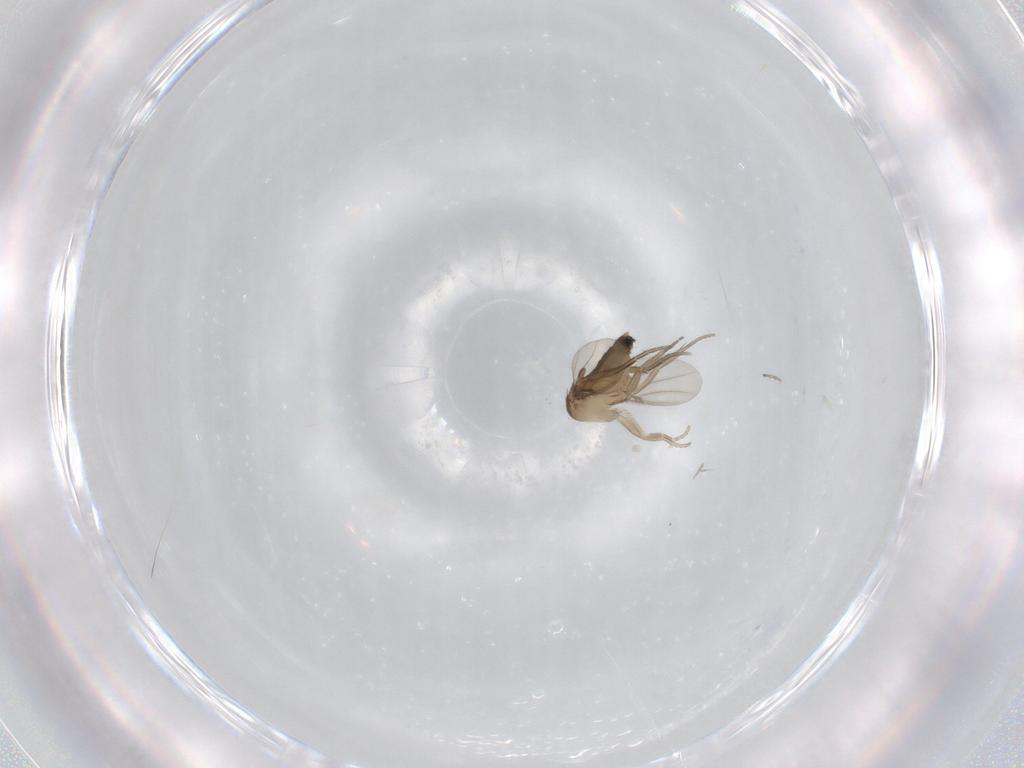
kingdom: Animalia
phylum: Arthropoda
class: Insecta
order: Diptera
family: Phoridae
